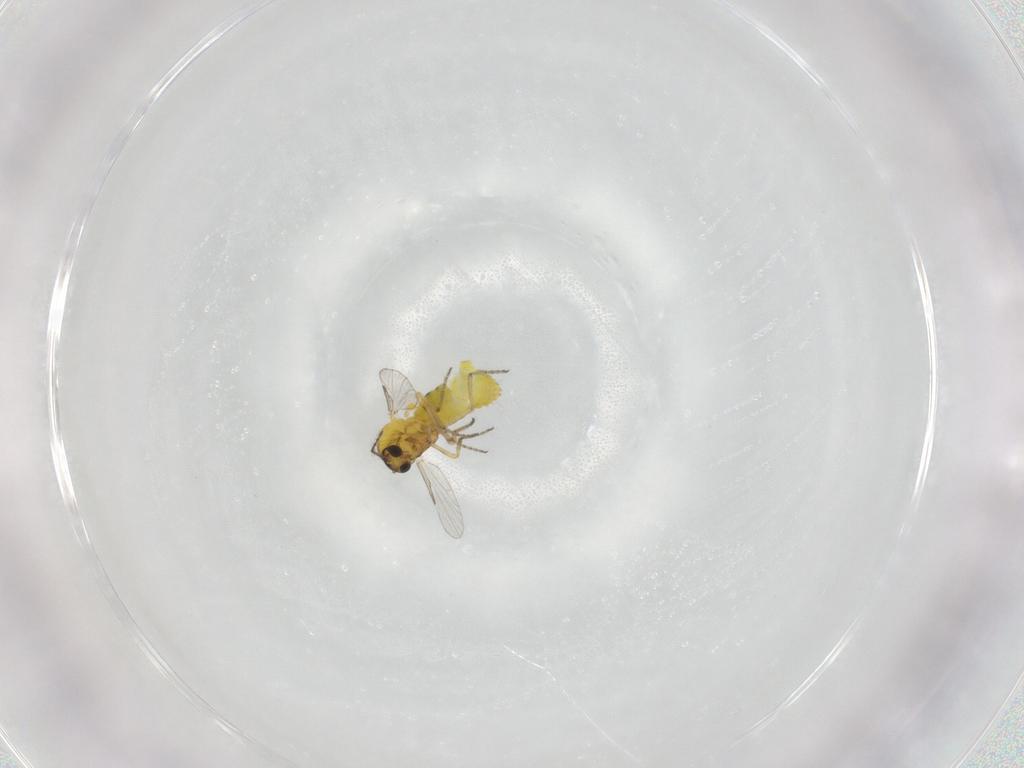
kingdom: Animalia
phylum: Arthropoda
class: Insecta
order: Diptera
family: Ceratopogonidae
